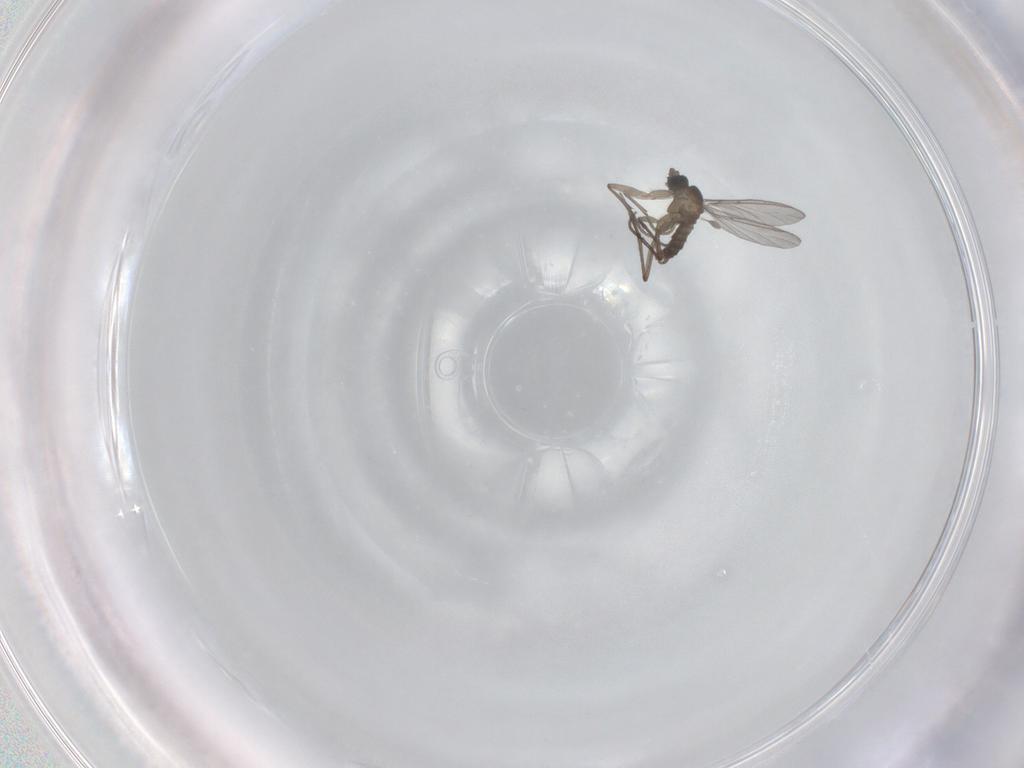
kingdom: Animalia
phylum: Arthropoda
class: Insecta
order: Diptera
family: Sciaridae
